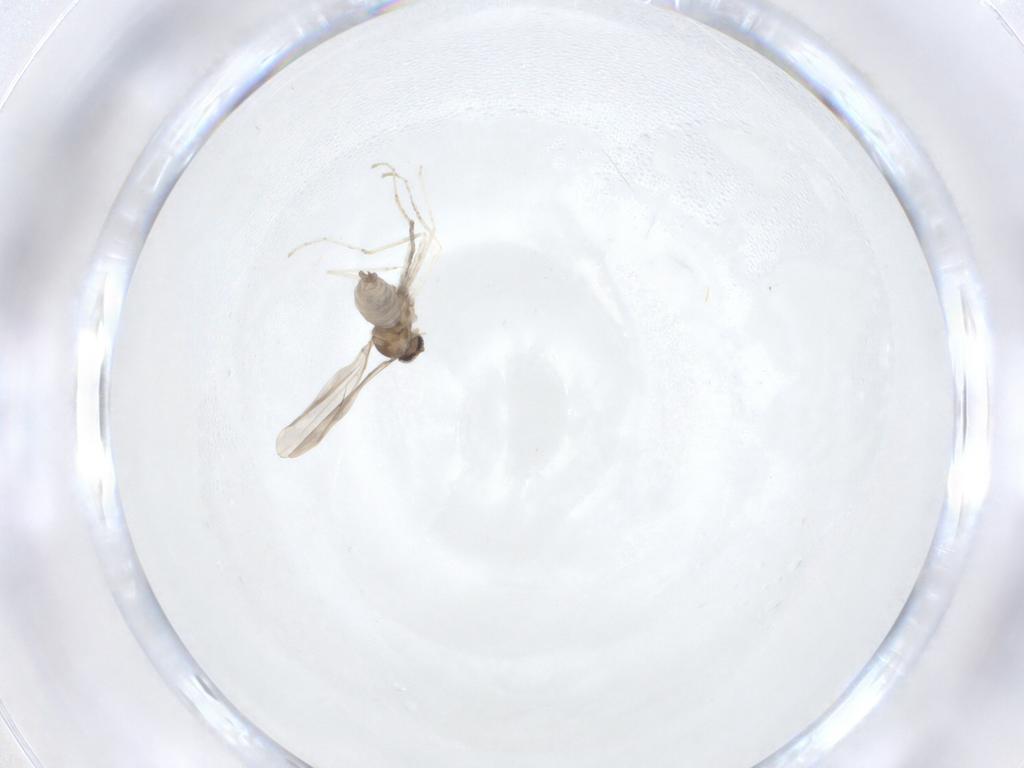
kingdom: Animalia
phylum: Arthropoda
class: Insecta
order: Diptera
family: Cecidomyiidae
